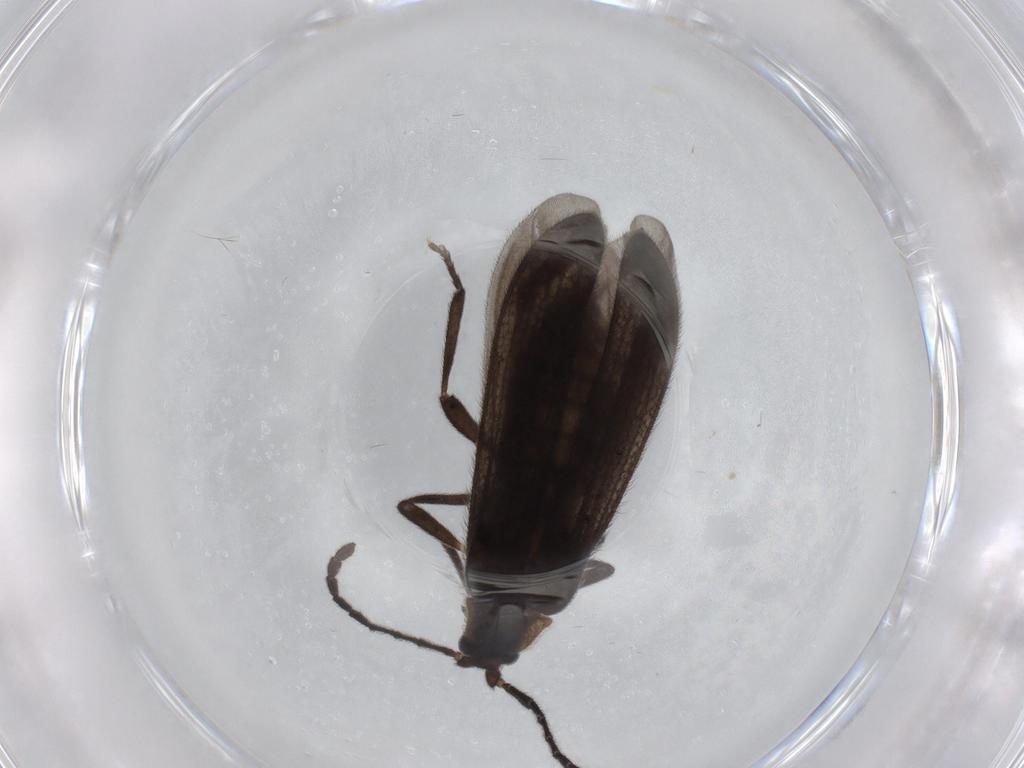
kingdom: Animalia
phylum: Arthropoda
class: Insecta
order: Coleoptera
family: Lycidae
